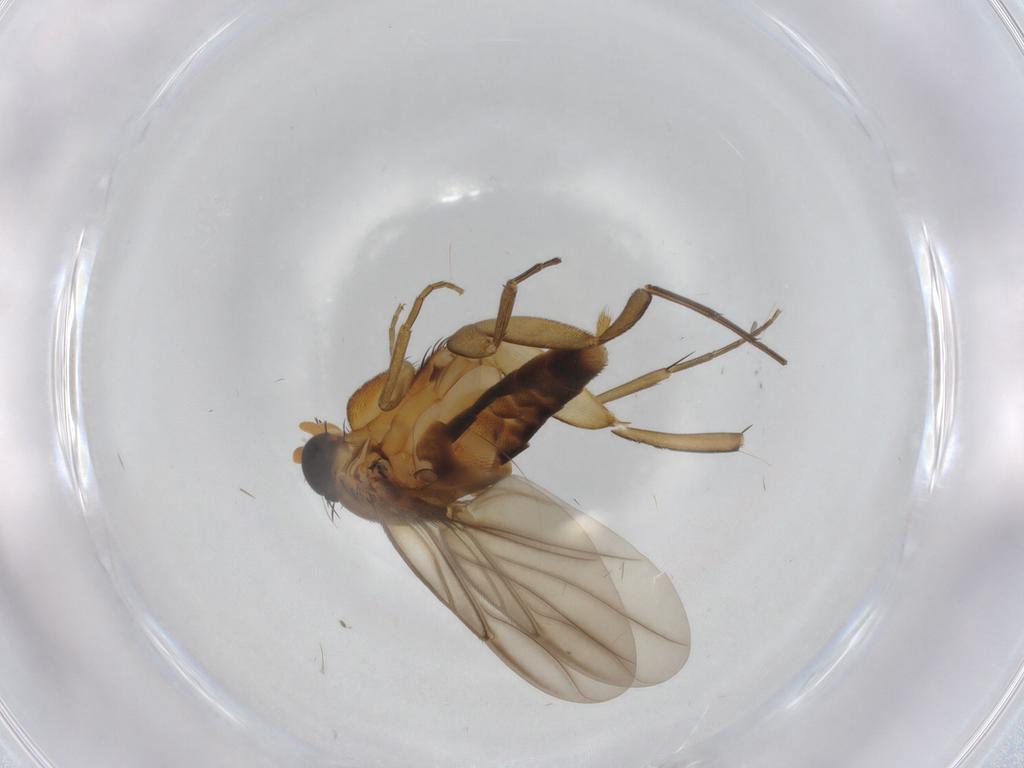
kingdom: Animalia
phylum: Arthropoda
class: Insecta
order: Diptera
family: Phoridae
